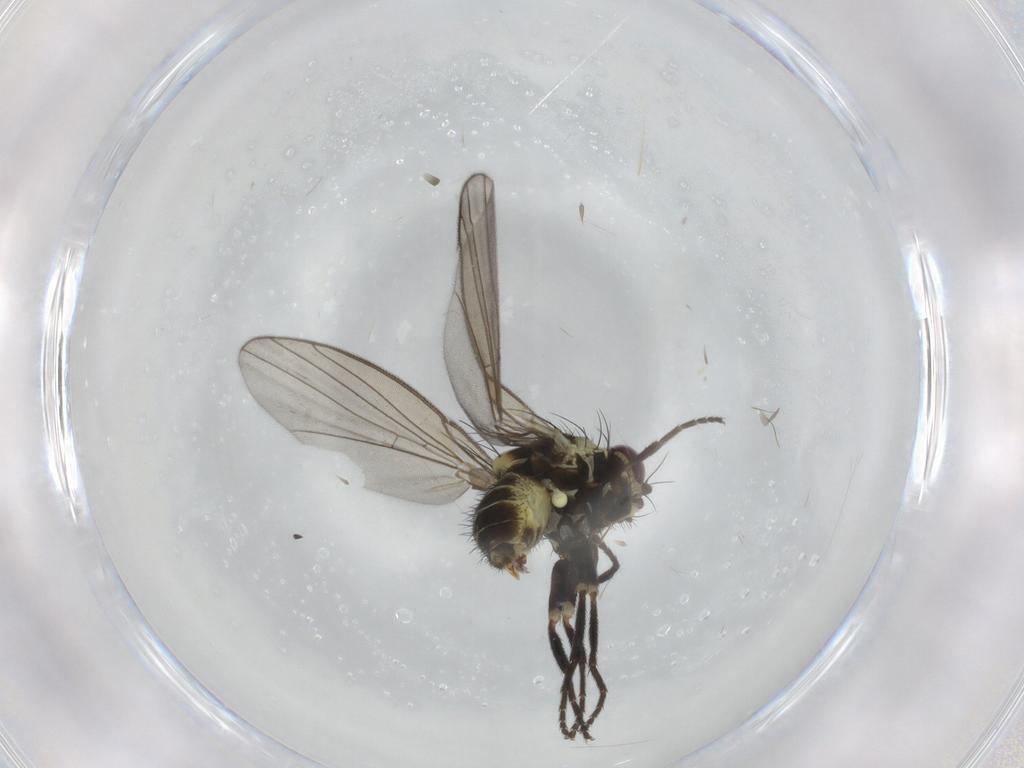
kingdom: Animalia
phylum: Arthropoda
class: Insecta
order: Diptera
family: Agromyzidae
